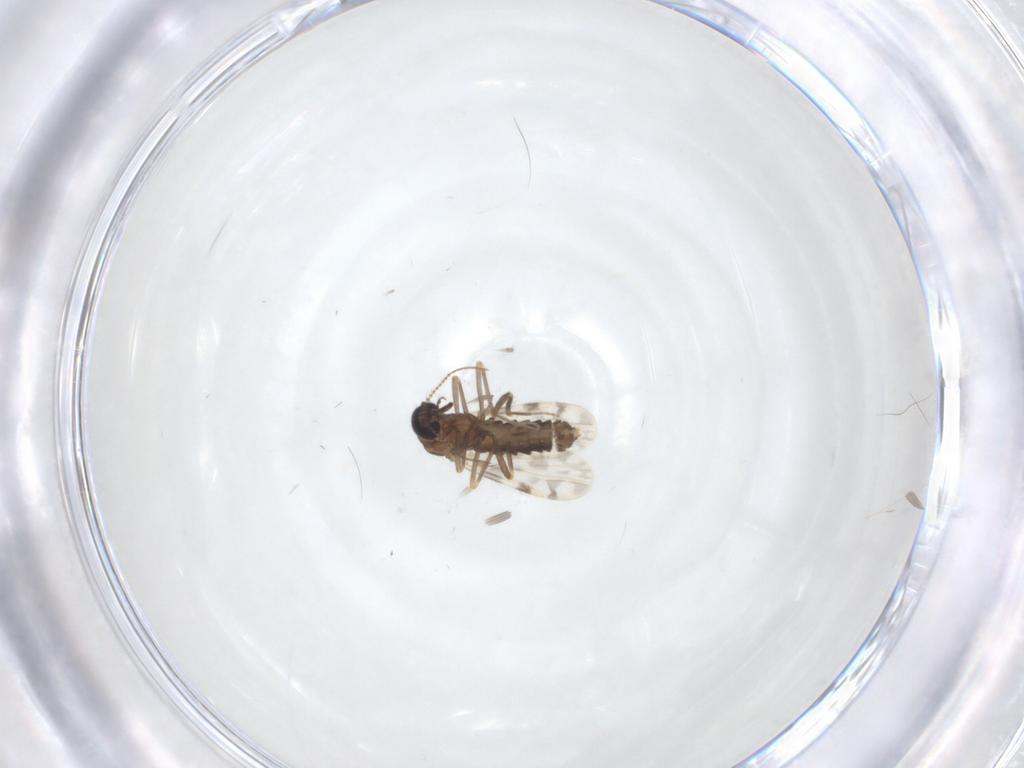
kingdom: Animalia
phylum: Arthropoda
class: Insecta
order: Diptera
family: Ceratopogonidae
